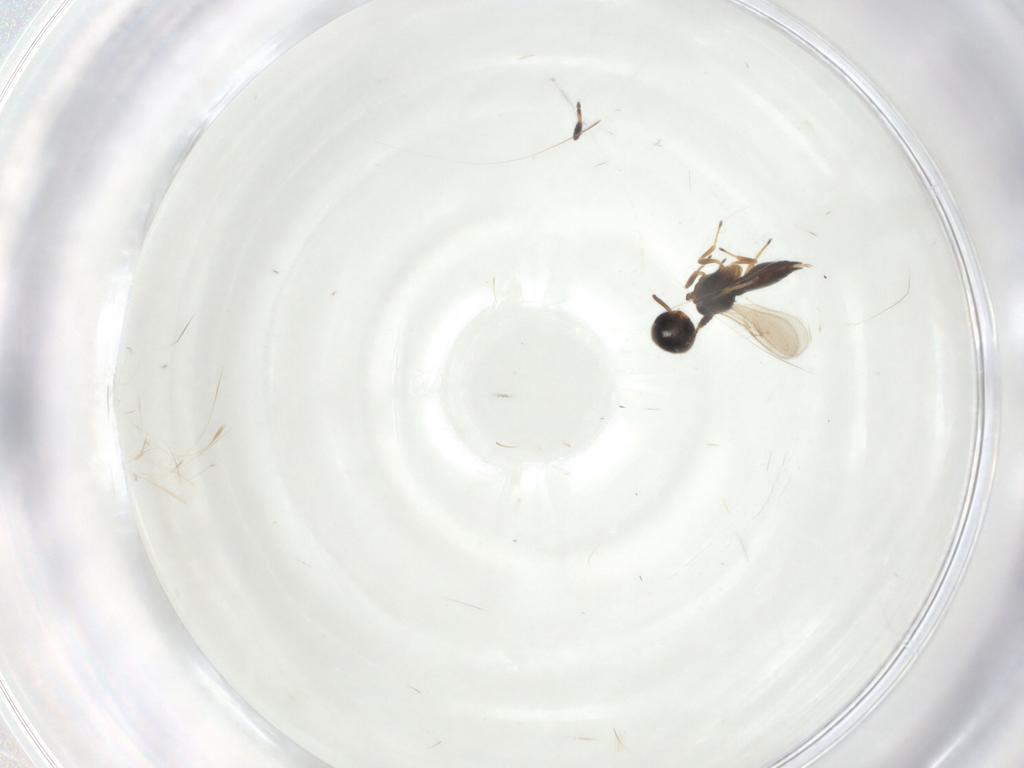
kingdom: Animalia
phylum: Arthropoda
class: Insecta
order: Hymenoptera
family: Scelionidae
